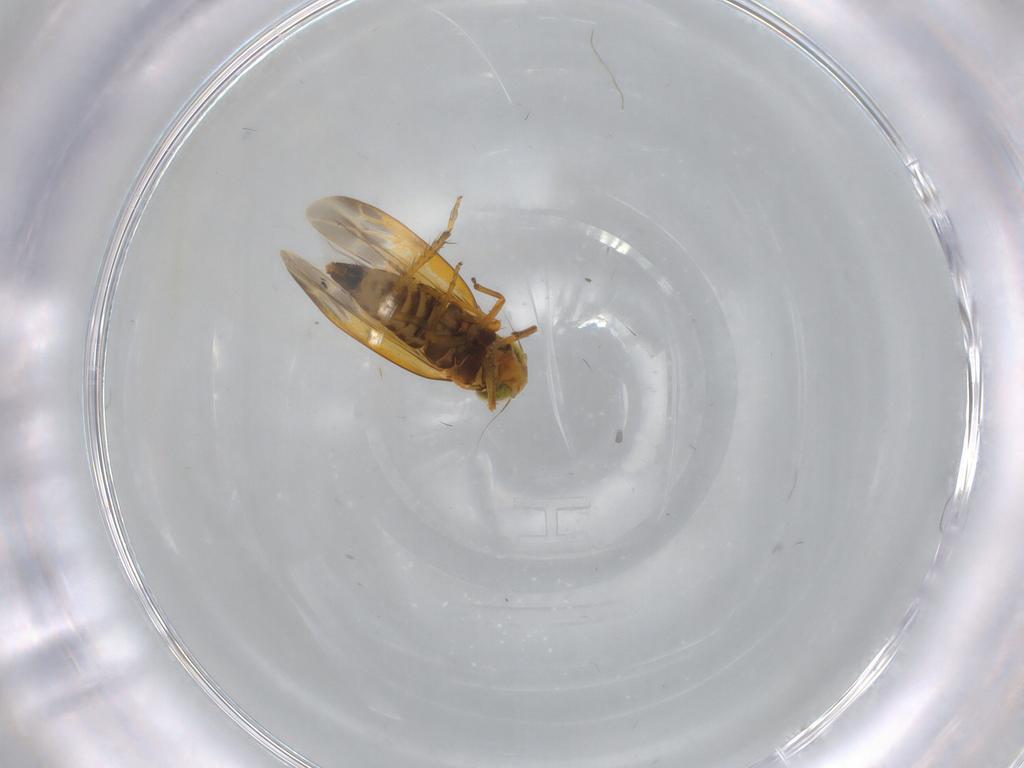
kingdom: Animalia
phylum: Arthropoda
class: Insecta
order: Hemiptera
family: Cicadellidae
